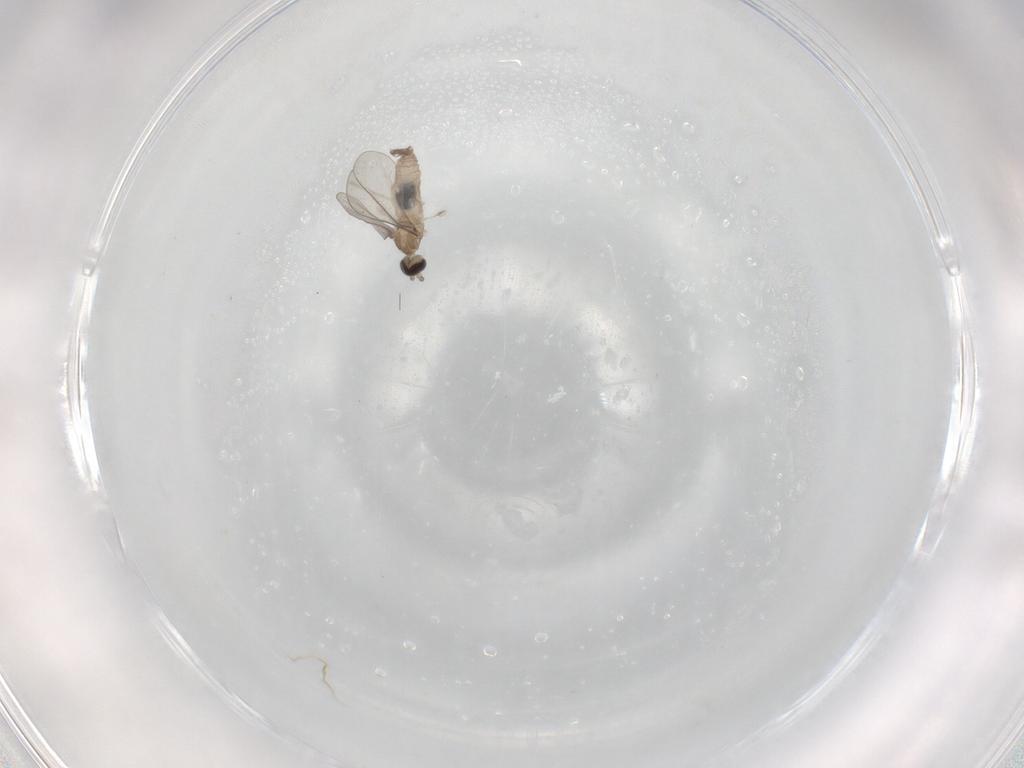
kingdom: Animalia
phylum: Arthropoda
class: Insecta
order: Diptera
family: Cecidomyiidae
